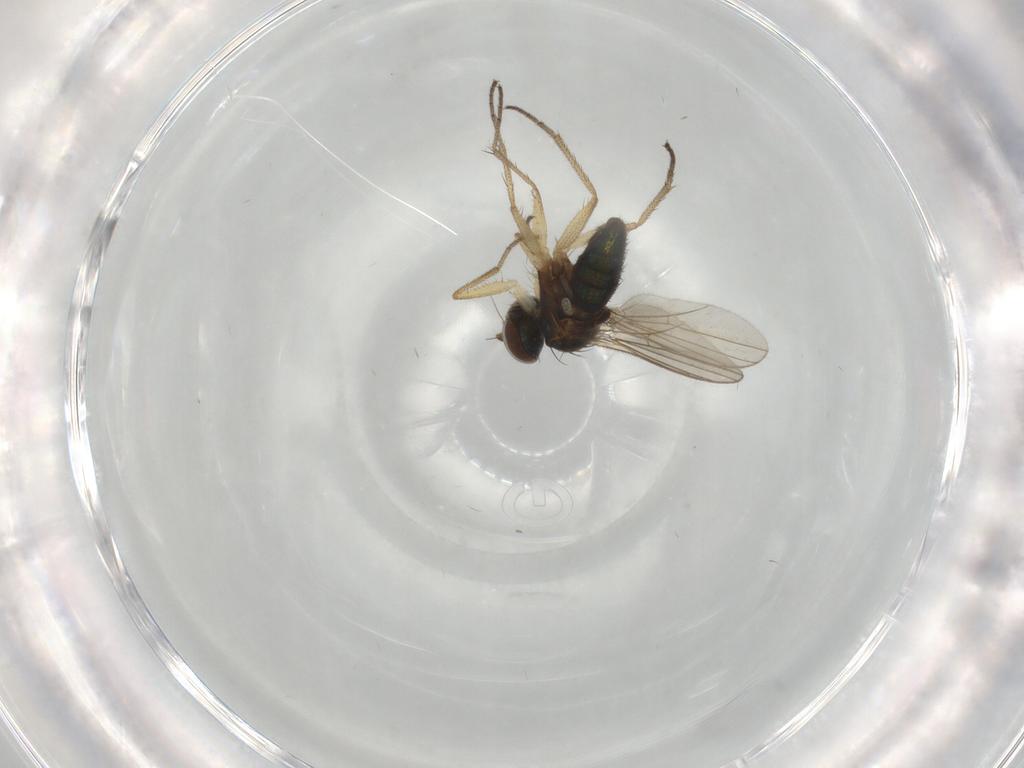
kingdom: Animalia
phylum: Arthropoda
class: Insecta
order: Diptera
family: Dolichopodidae
